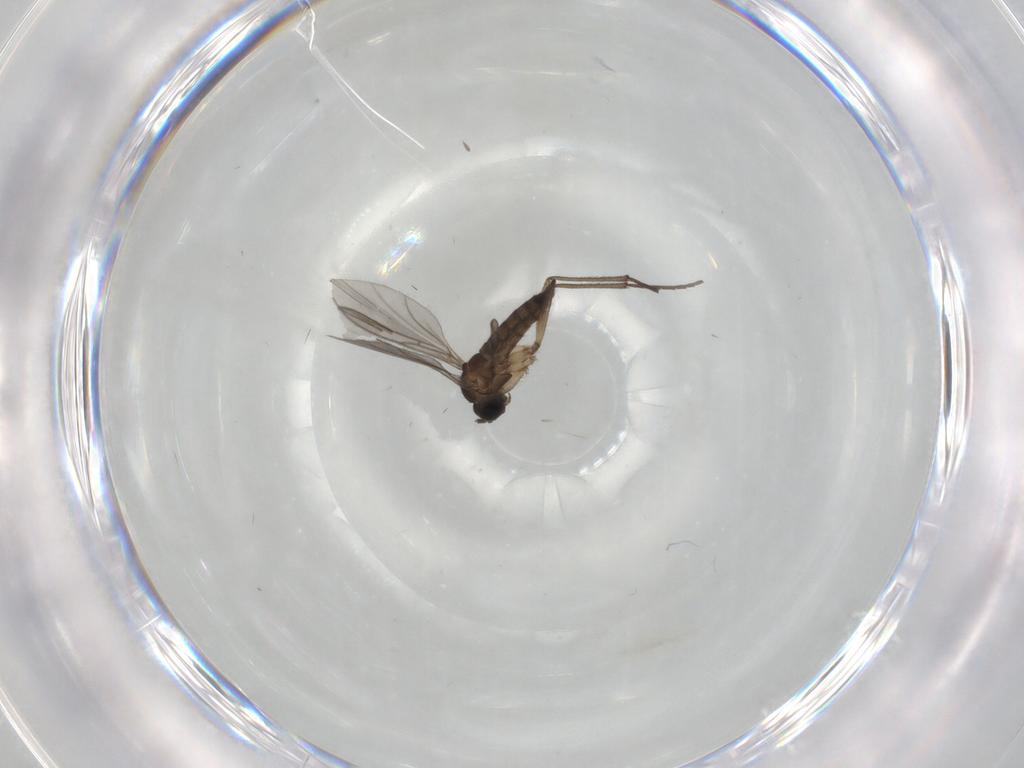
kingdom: Animalia
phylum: Arthropoda
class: Insecta
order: Diptera
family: Sciaridae
